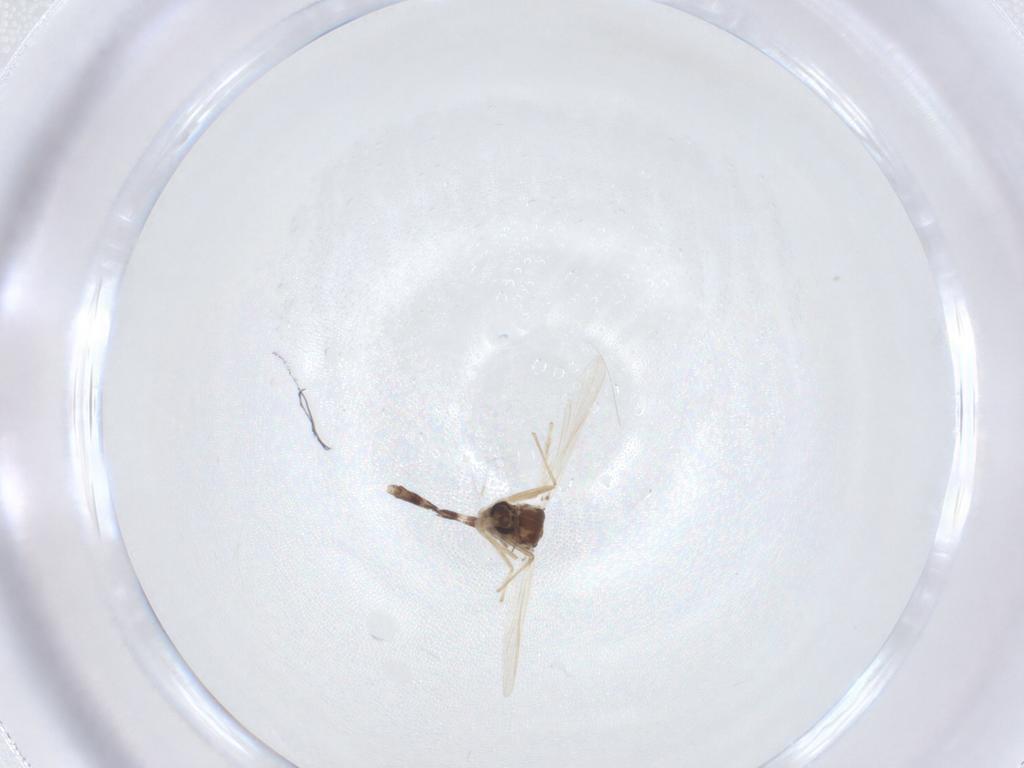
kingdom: Animalia
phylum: Arthropoda
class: Insecta
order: Diptera
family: Chironomidae
